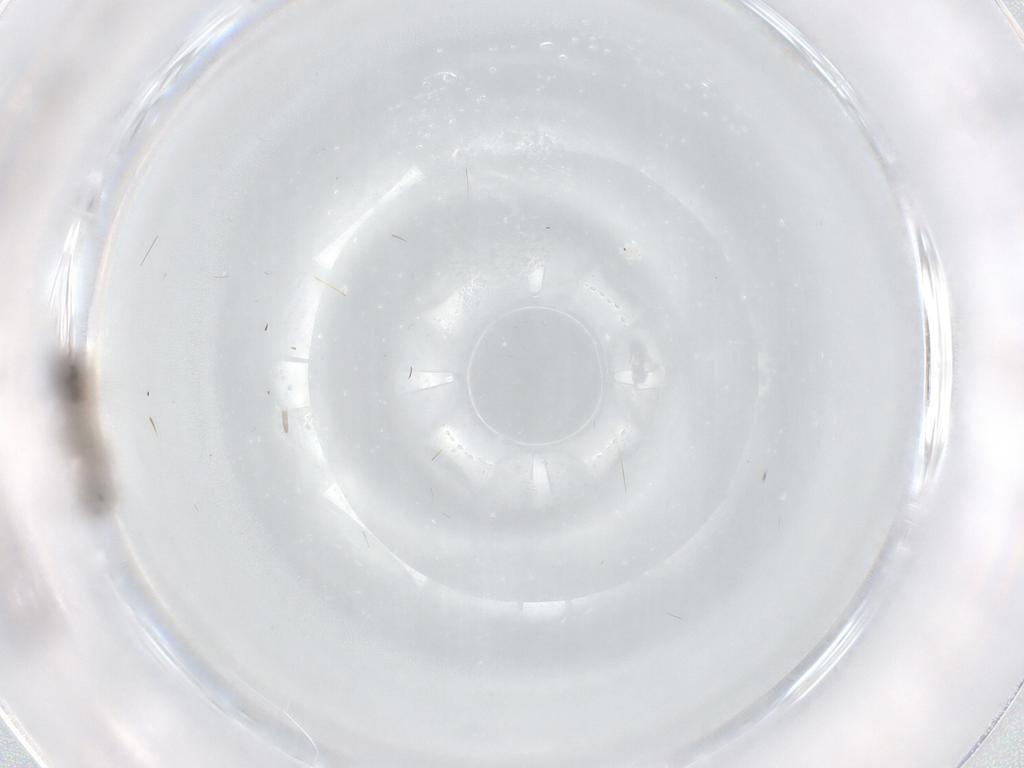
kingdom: Animalia
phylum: Arthropoda
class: Insecta
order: Diptera
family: Chironomidae
